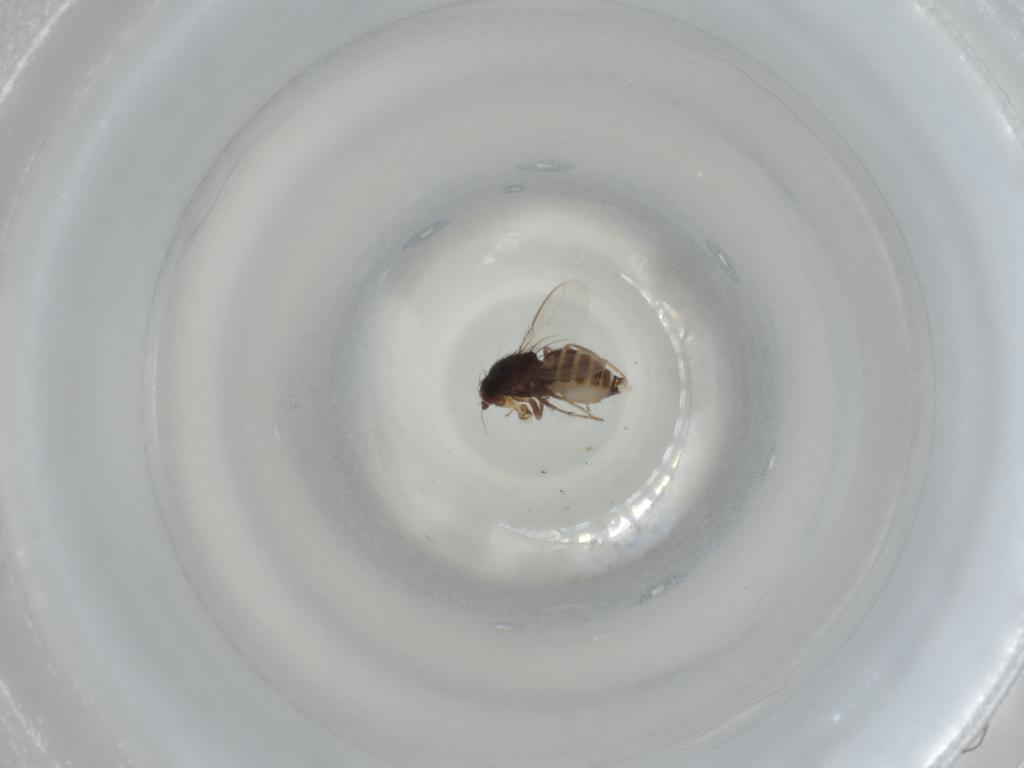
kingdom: Animalia
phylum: Arthropoda
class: Insecta
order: Diptera
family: Sphaeroceridae
